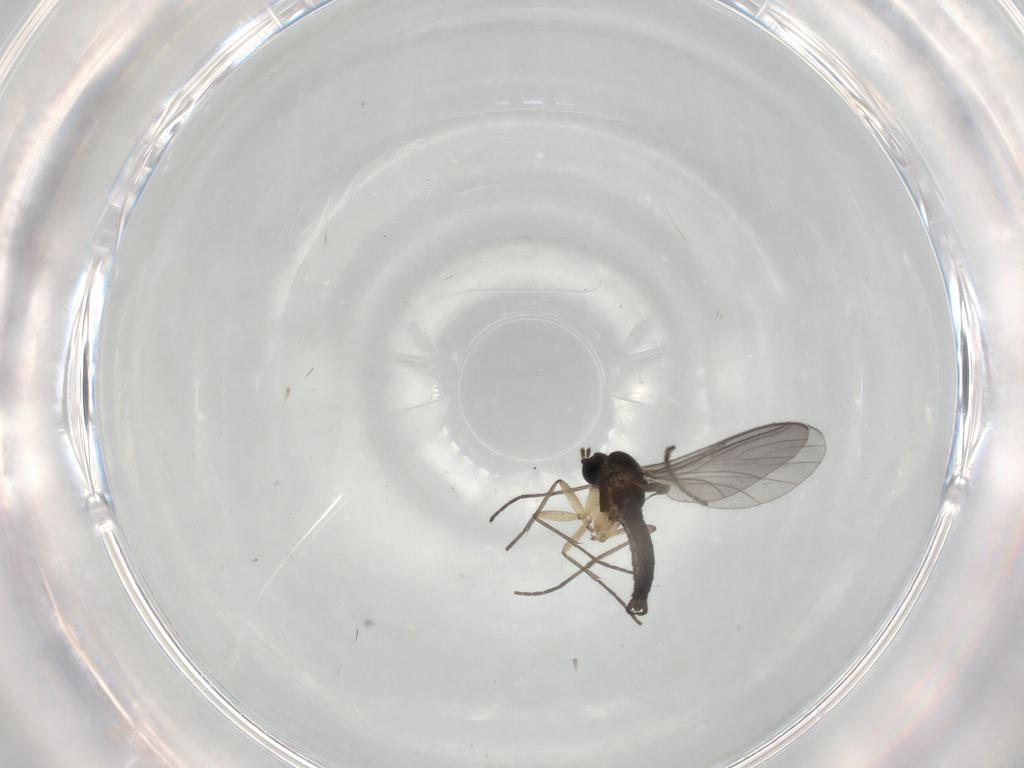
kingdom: Animalia
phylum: Arthropoda
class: Insecta
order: Diptera
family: Sciaridae
